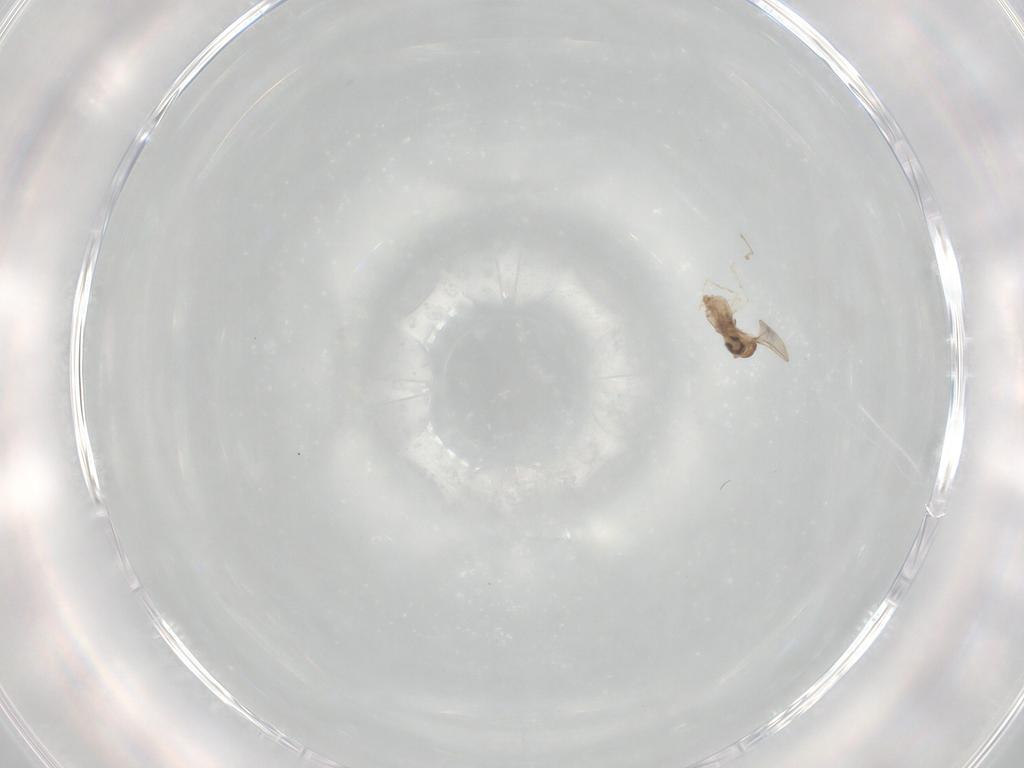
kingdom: Animalia
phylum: Arthropoda
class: Insecta
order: Diptera
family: Cecidomyiidae
